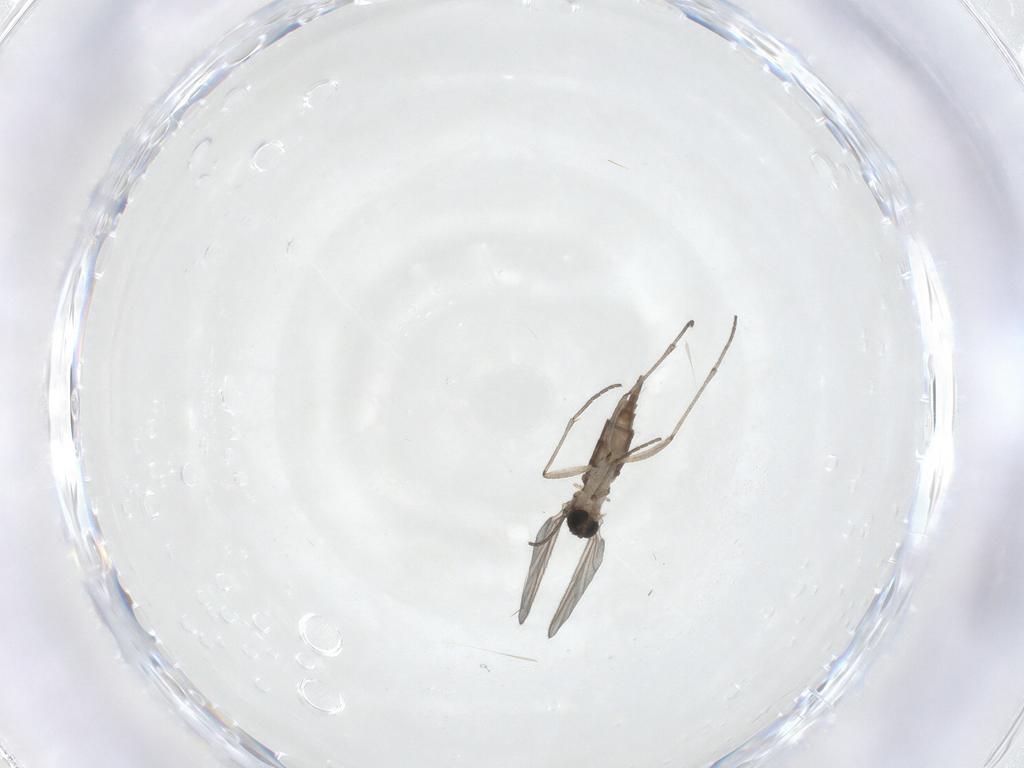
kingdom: Animalia
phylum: Arthropoda
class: Insecta
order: Diptera
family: Sciaridae
